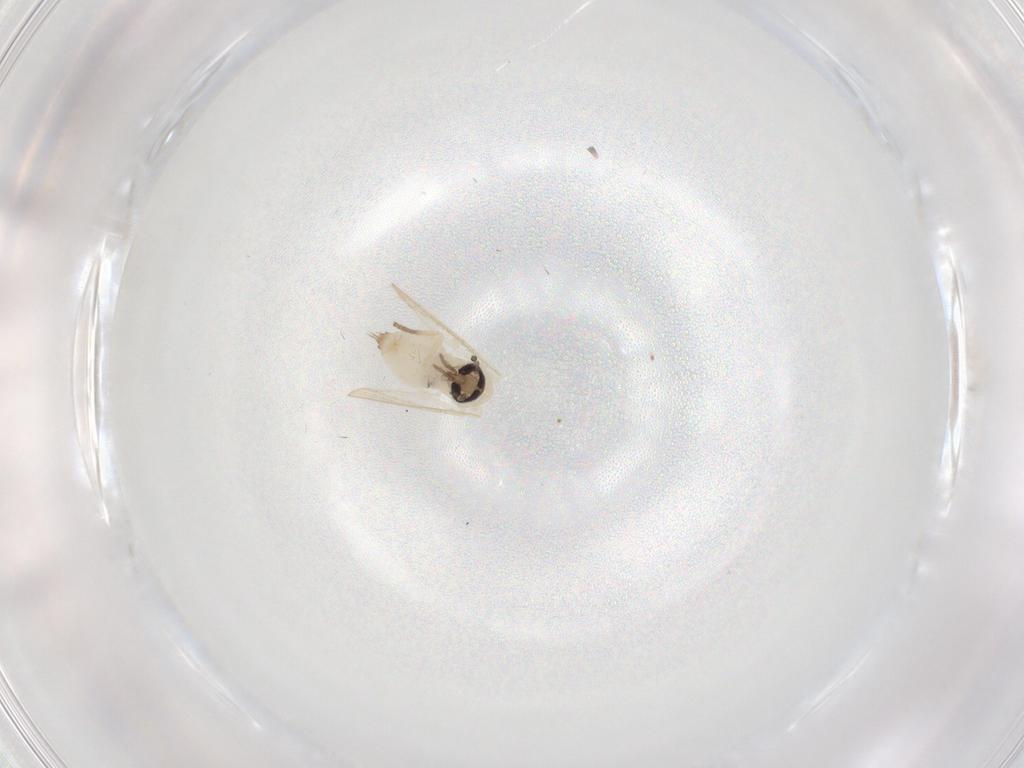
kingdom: Animalia
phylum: Arthropoda
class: Insecta
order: Diptera
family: Psychodidae
